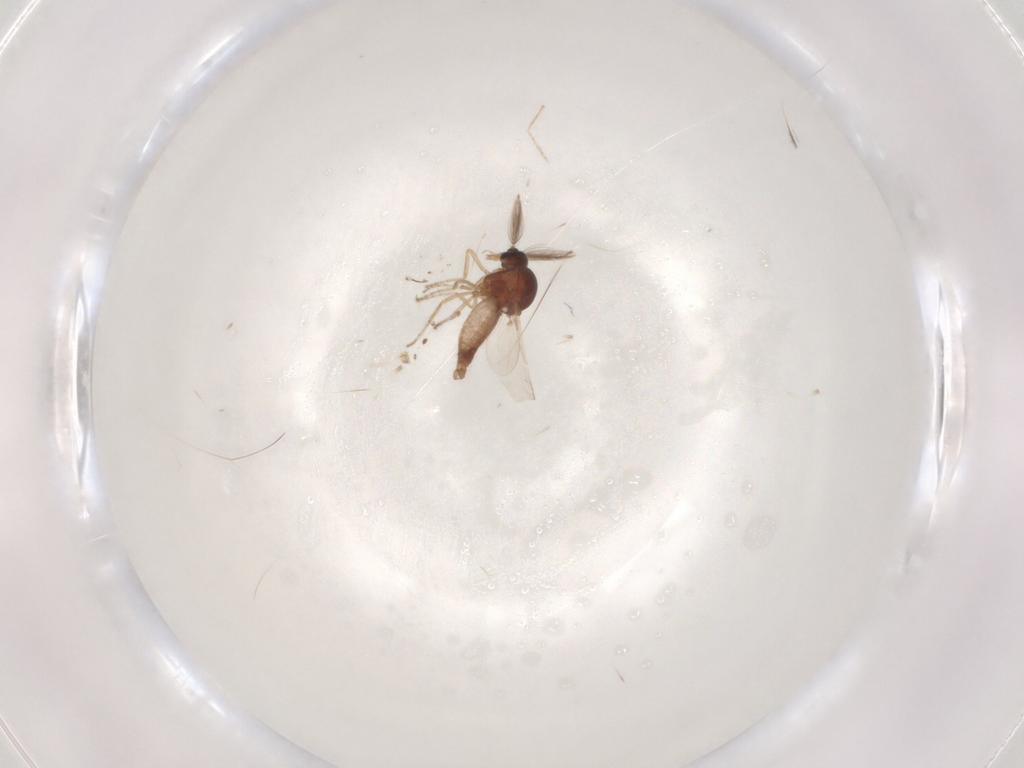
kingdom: Animalia
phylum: Arthropoda
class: Insecta
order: Diptera
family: Ceratopogonidae
